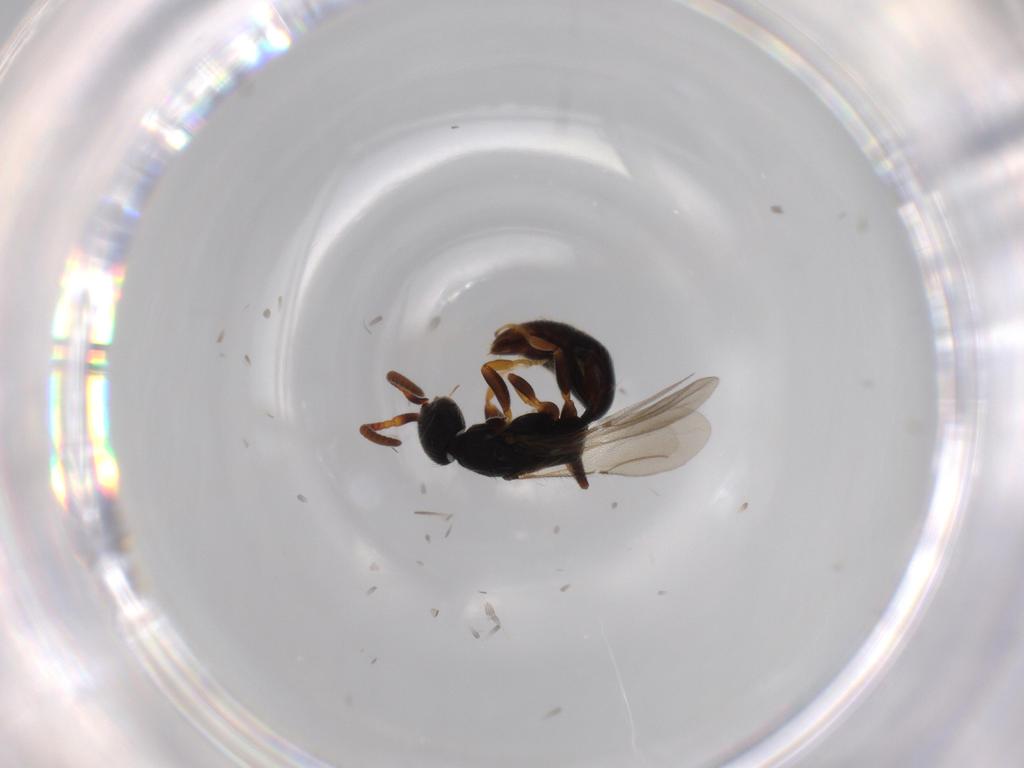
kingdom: Animalia
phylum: Arthropoda
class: Insecta
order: Hymenoptera
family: Bethylidae
